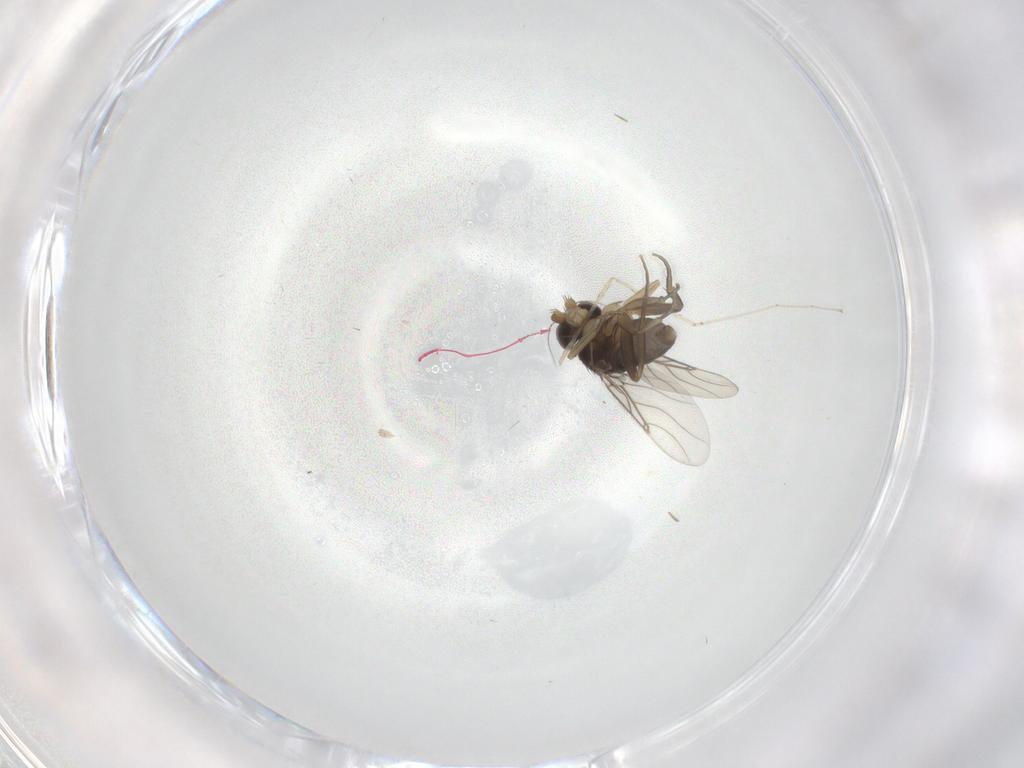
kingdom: Animalia
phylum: Arthropoda
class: Insecta
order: Diptera
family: Phoridae
